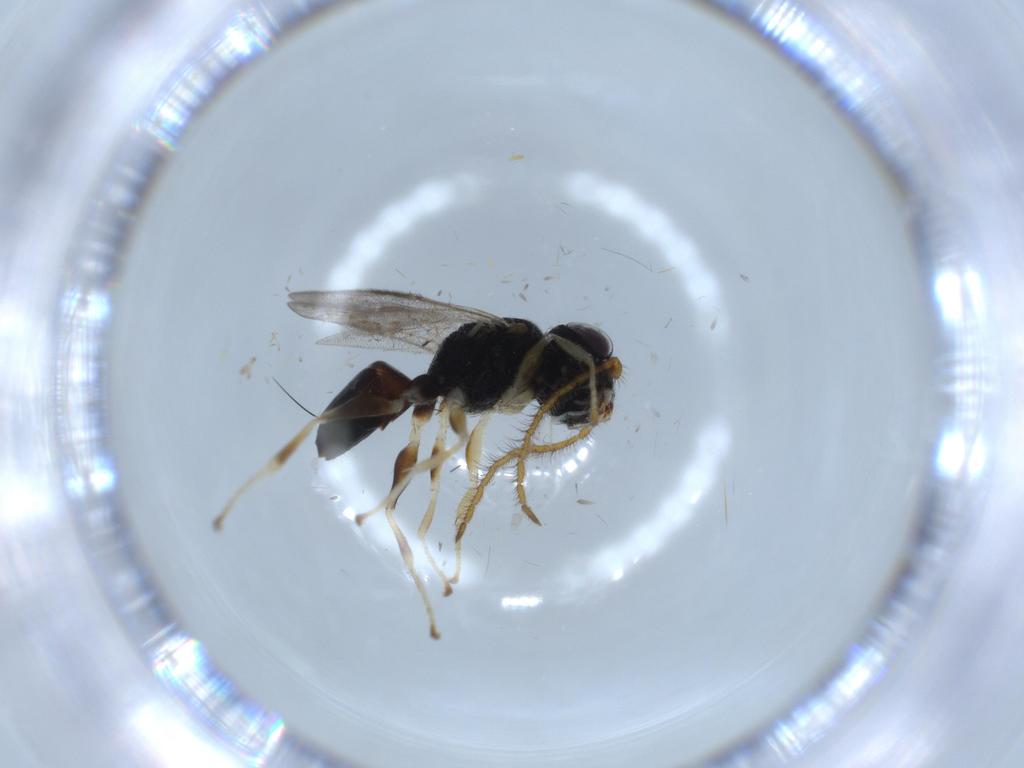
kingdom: Animalia
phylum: Arthropoda
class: Insecta
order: Hymenoptera
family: Dryinidae
